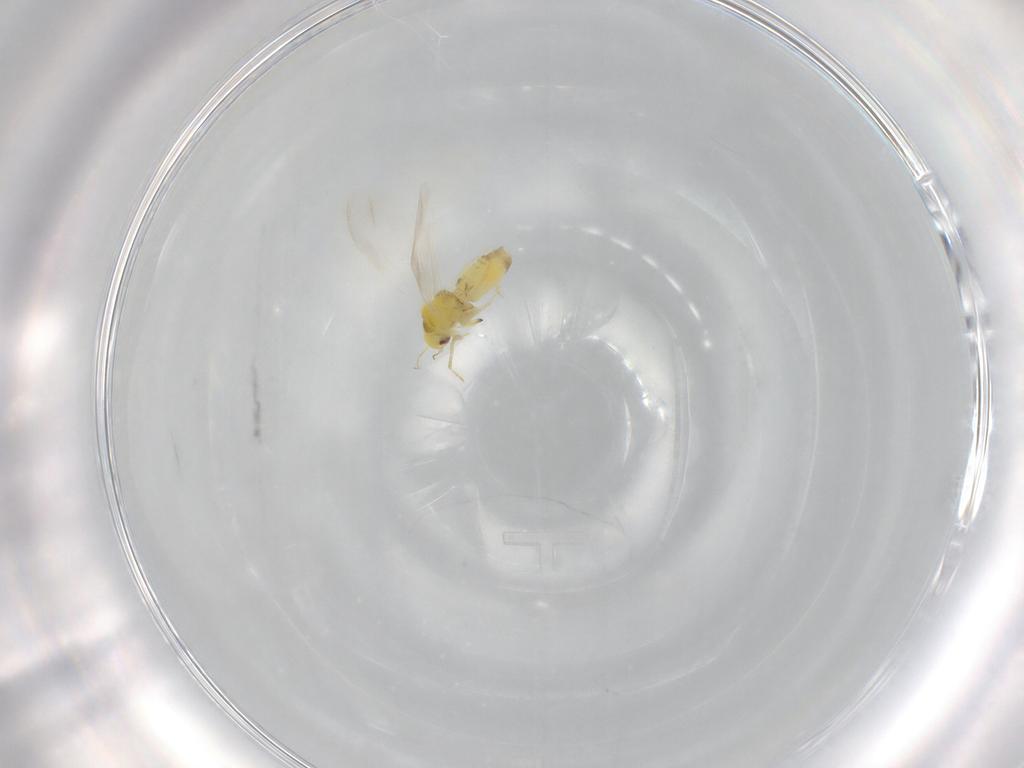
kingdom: Animalia
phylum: Arthropoda
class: Insecta
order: Hemiptera
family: Aleyrodidae
